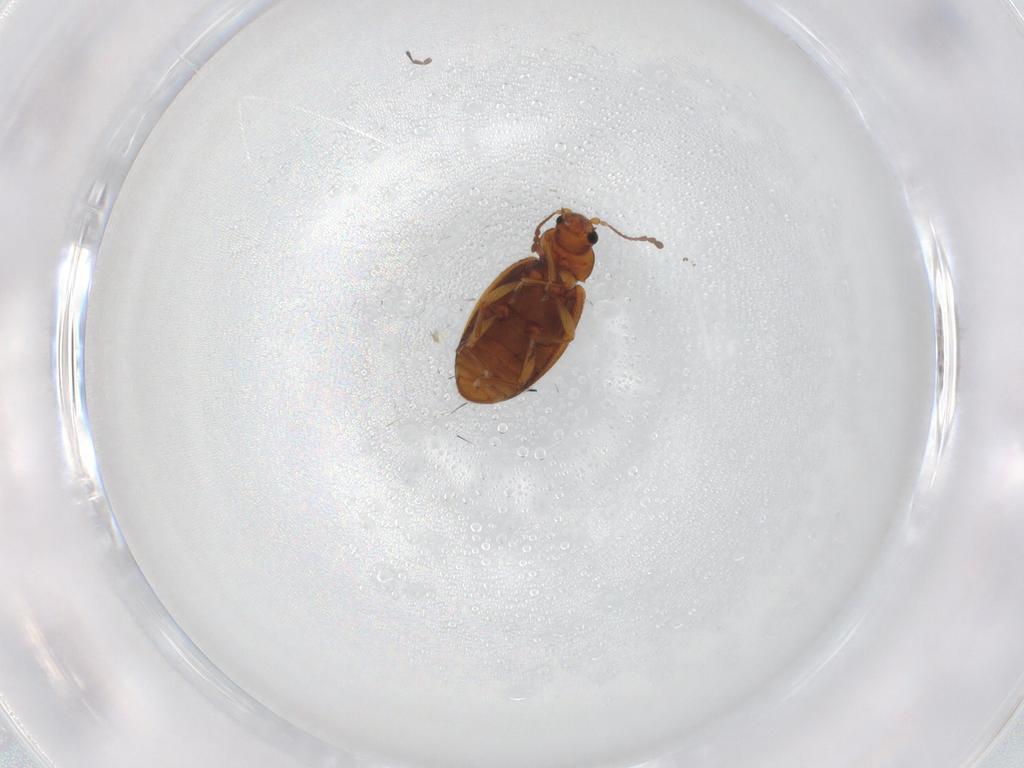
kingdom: Animalia
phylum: Arthropoda
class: Insecta
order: Coleoptera
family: Latridiidae
